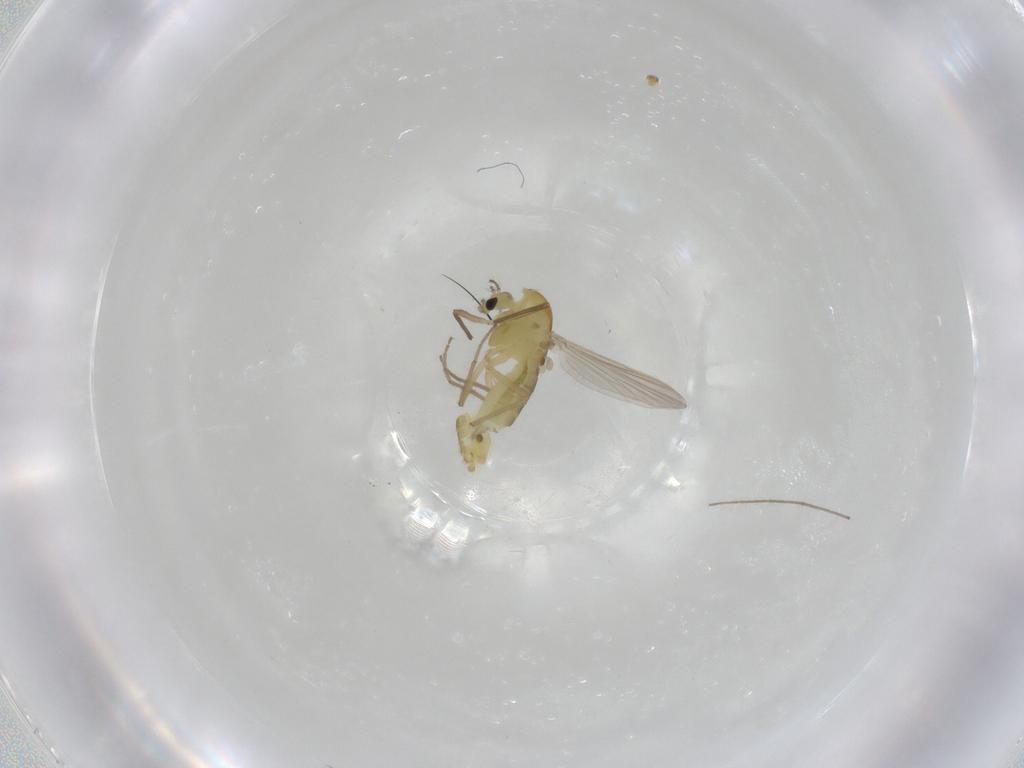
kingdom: Animalia
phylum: Arthropoda
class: Insecta
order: Diptera
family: Chironomidae
